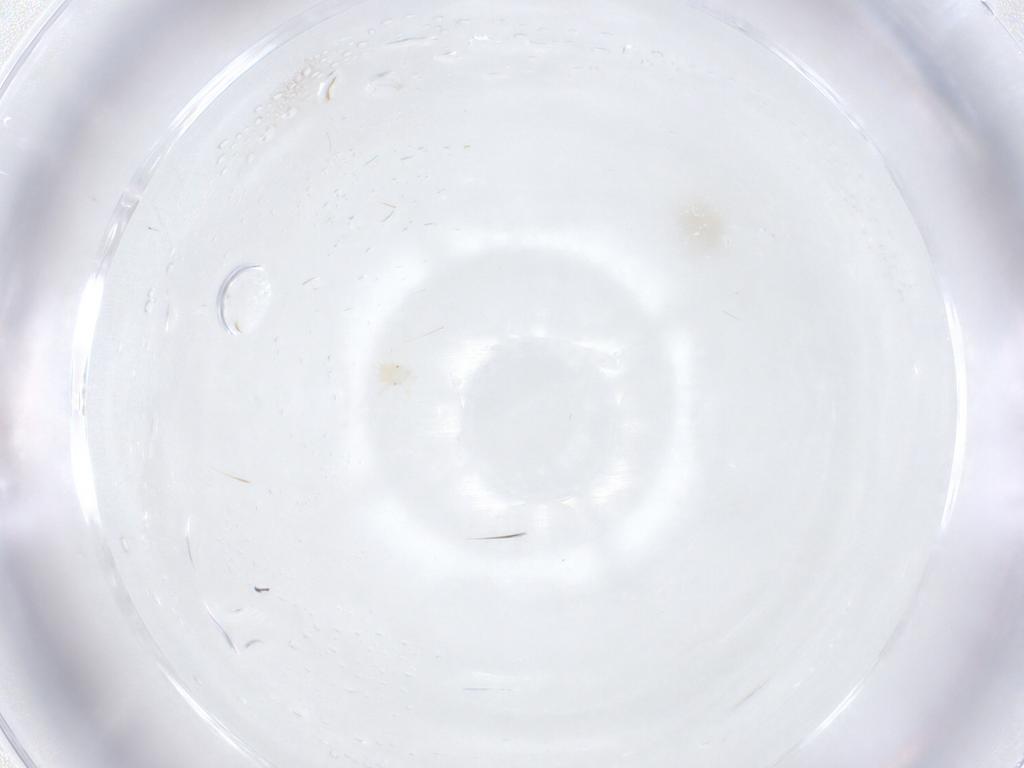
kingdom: Animalia
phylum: Arthropoda
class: Arachnida
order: Trombidiformes
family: Anystidae
